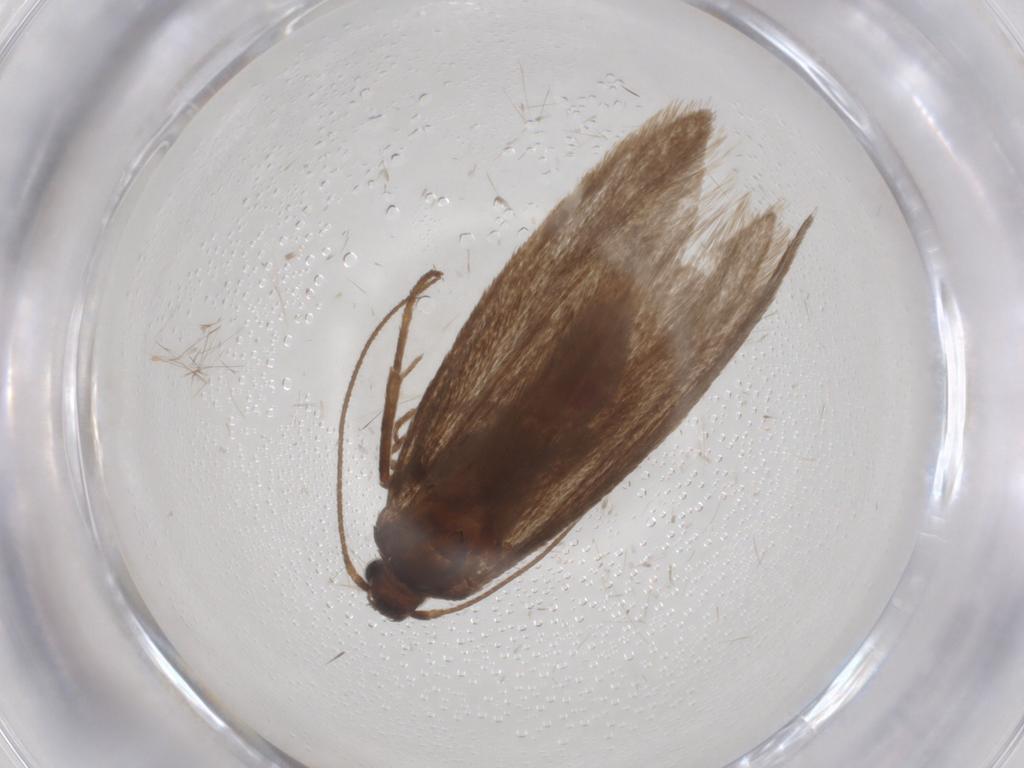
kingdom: Animalia
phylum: Arthropoda
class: Insecta
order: Lepidoptera
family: Limacodidae
